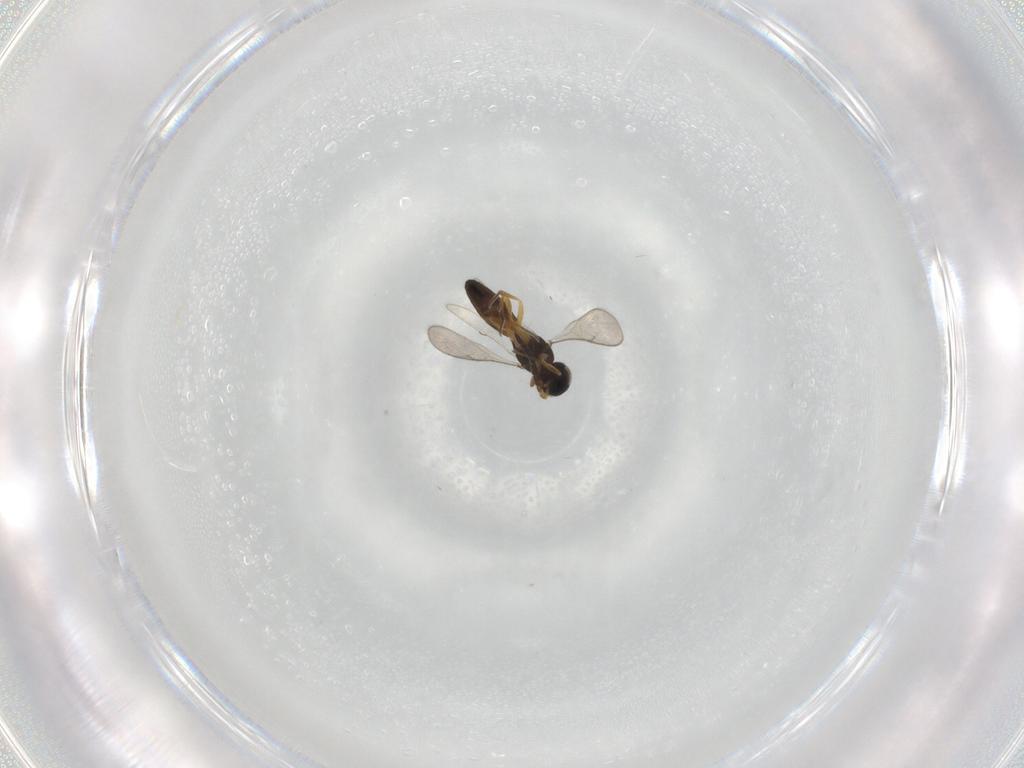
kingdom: Animalia
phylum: Arthropoda
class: Insecta
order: Hymenoptera
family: Scelionidae
